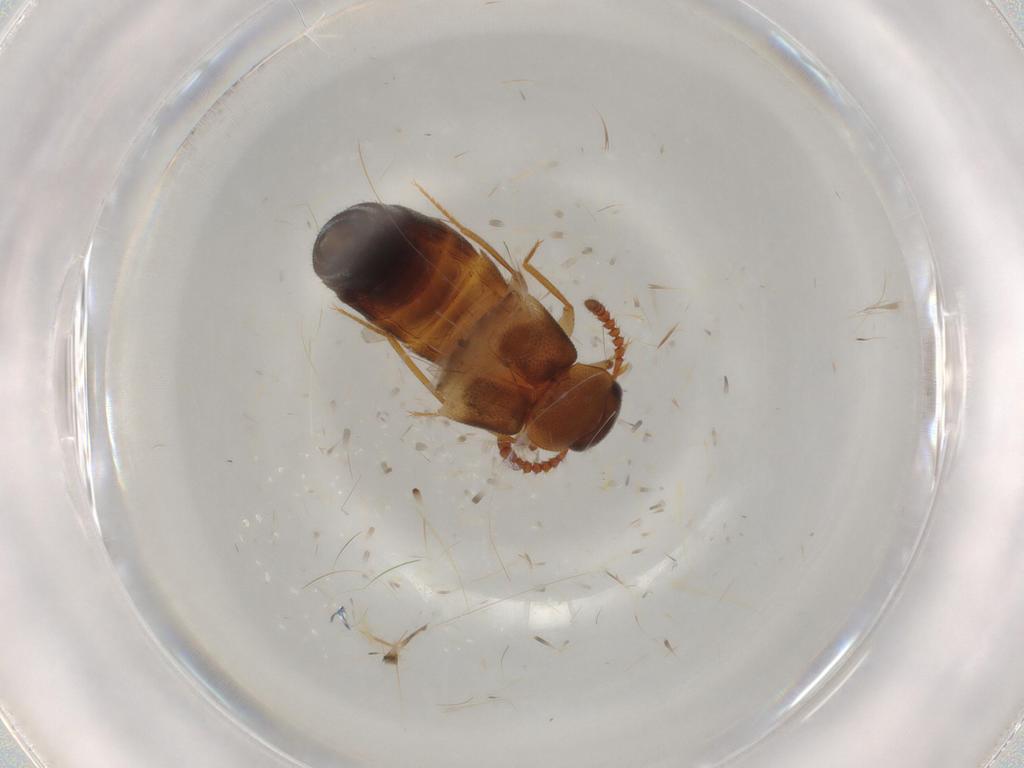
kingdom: Animalia
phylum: Arthropoda
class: Insecta
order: Coleoptera
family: Staphylinidae
